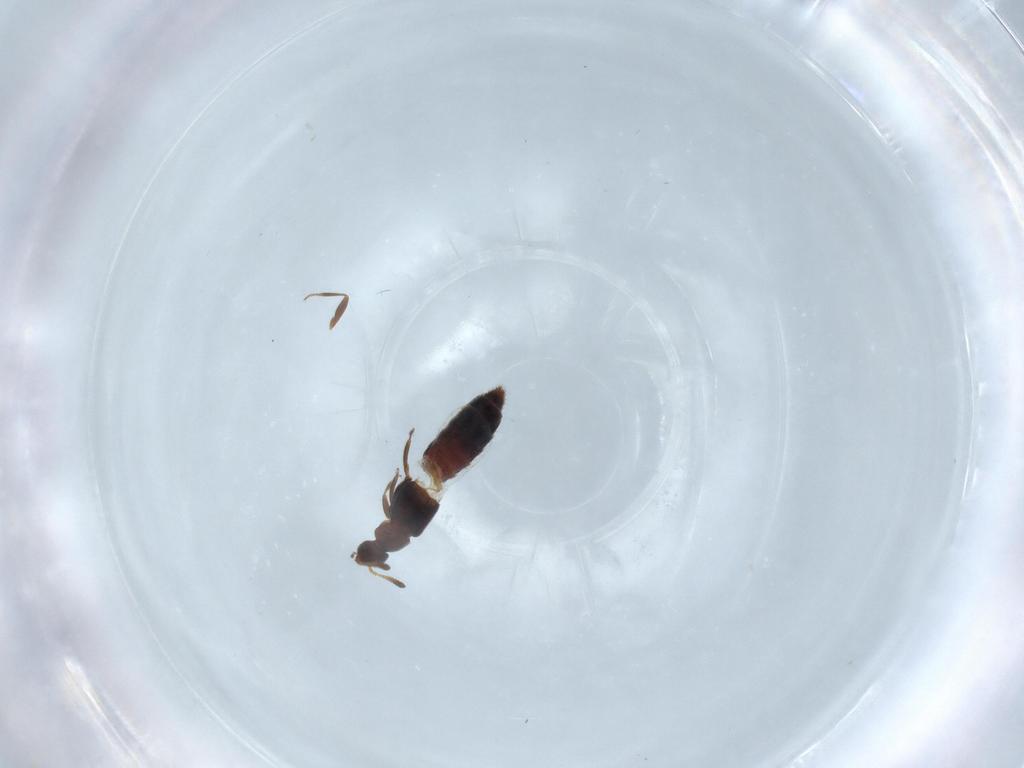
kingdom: Animalia
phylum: Arthropoda
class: Insecta
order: Coleoptera
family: Staphylinidae
